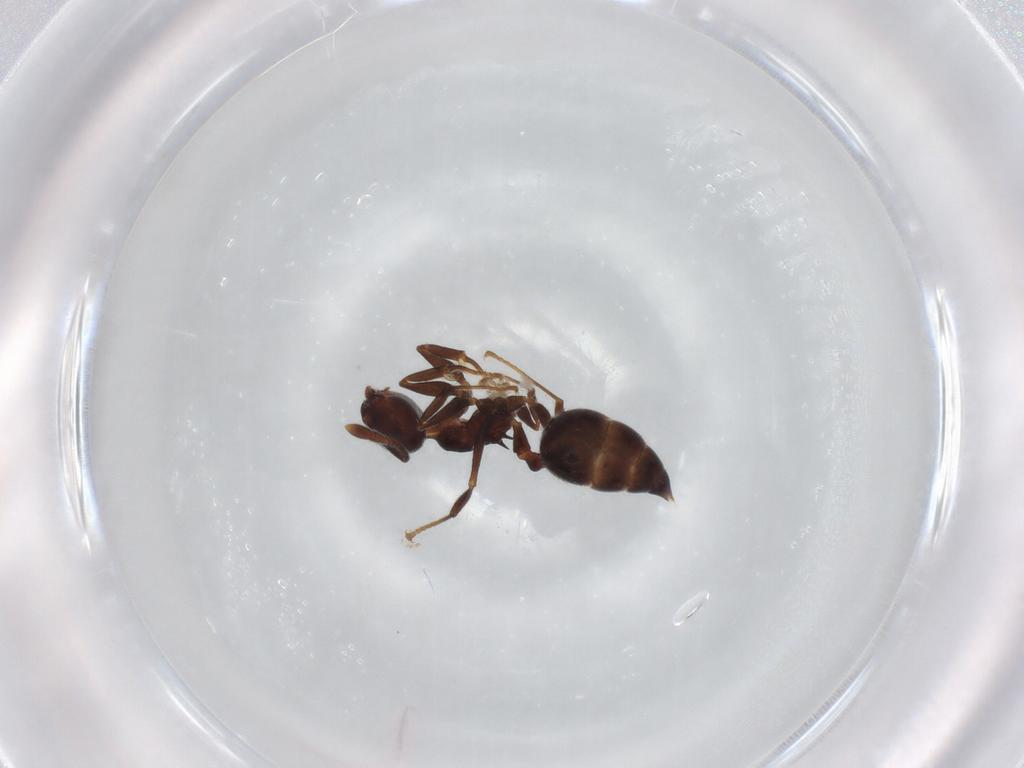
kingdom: Animalia
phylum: Arthropoda
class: Insecta
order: Hymenoptera
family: Formicidae
